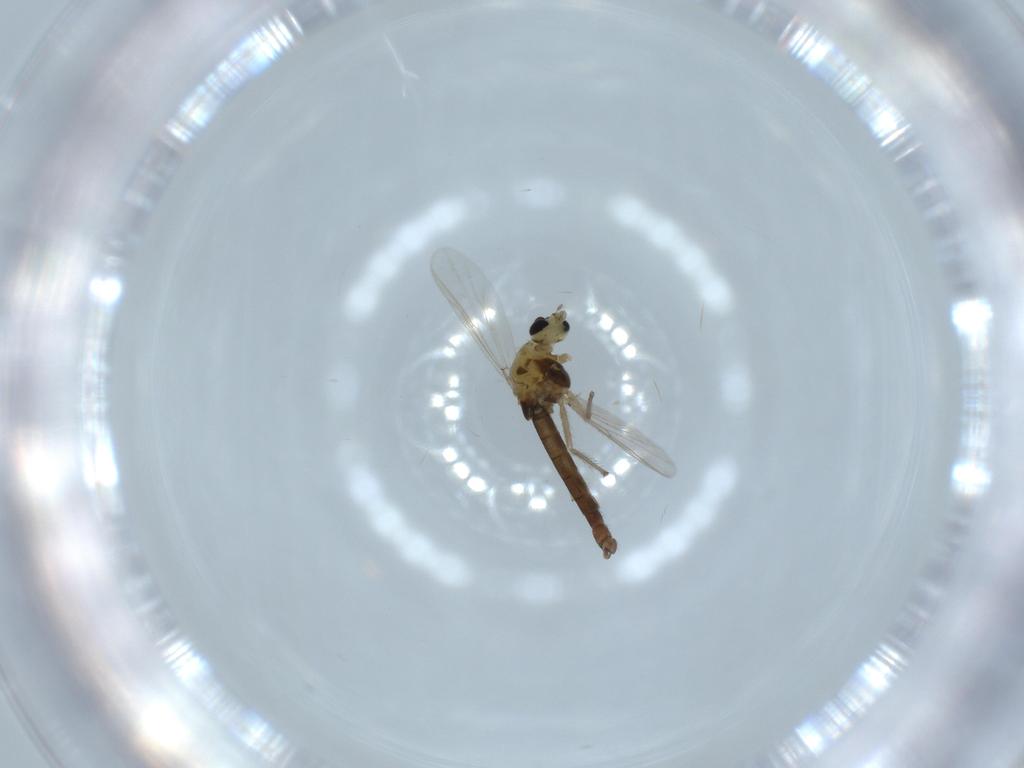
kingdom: Animalia
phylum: Arthropoda
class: Insecta
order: Diptera
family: Chironomidae
